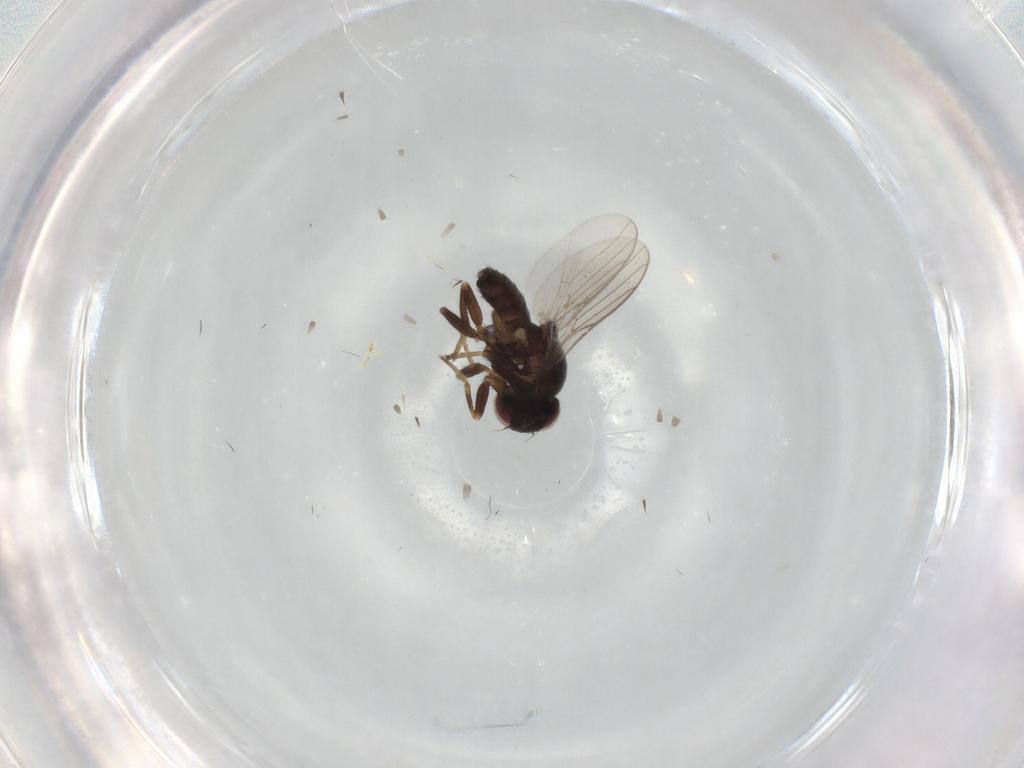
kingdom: Animalia
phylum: Arthropoda
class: Insecta
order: Diptera
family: Chloropidae
